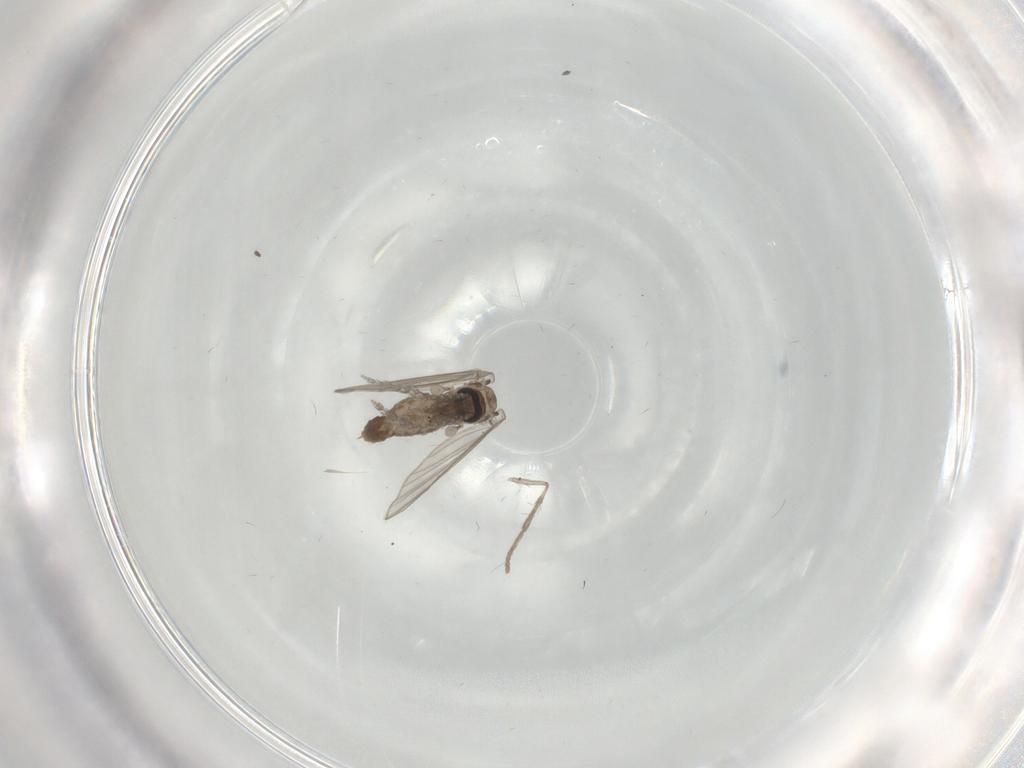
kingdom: Animalia
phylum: Arthropoda
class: Insecta
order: Diptera
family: Psychodidae
